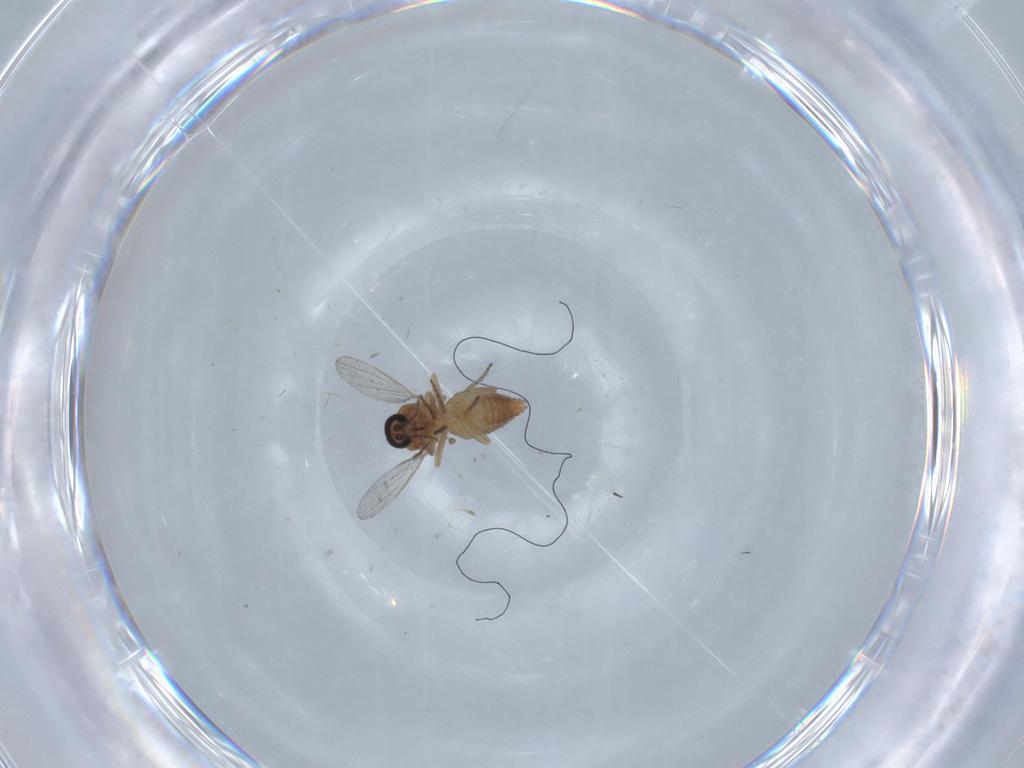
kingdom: Animalia
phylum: Arthropoda
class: Insecta
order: Diptera
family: Ceratopogonidae
